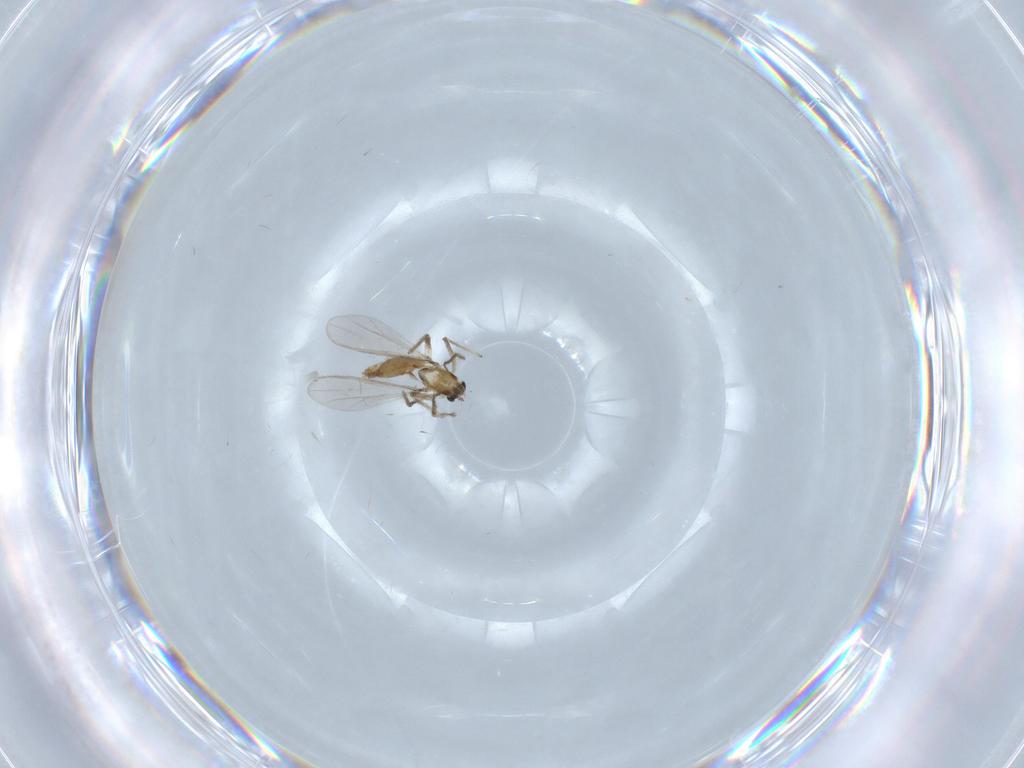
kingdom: Animalia
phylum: Arthropoda
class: Insecta
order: Diptera
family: Chironomidae
